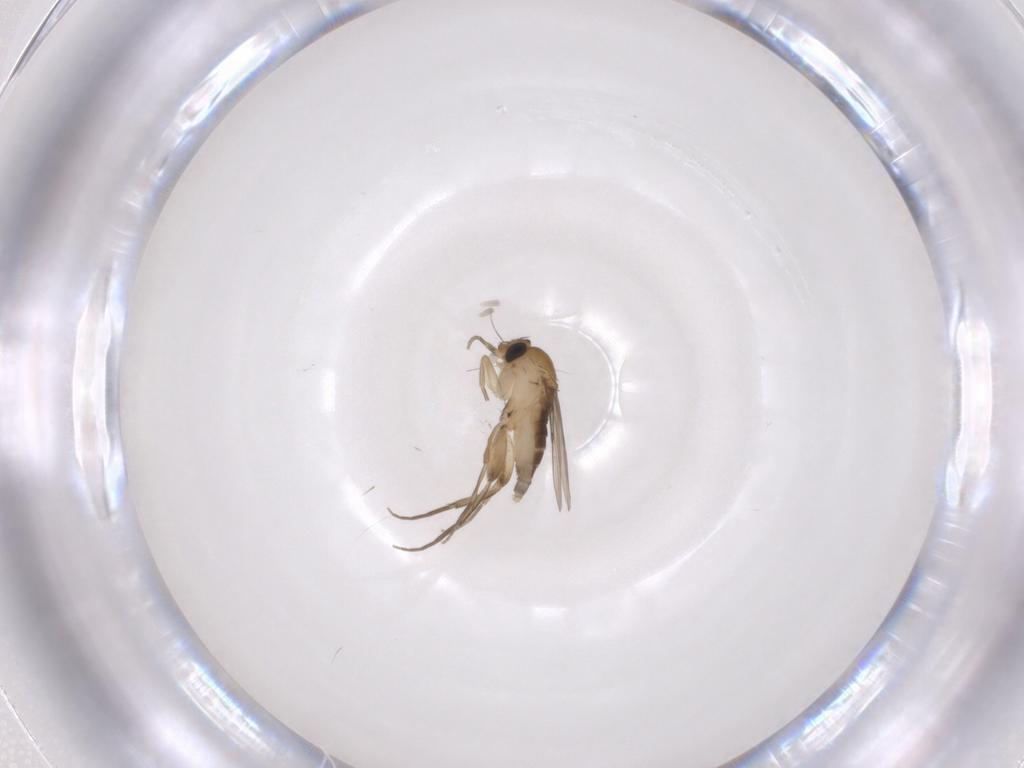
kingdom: Animalia
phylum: Arthropoda
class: Insecta
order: Diptera
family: Phoridae
